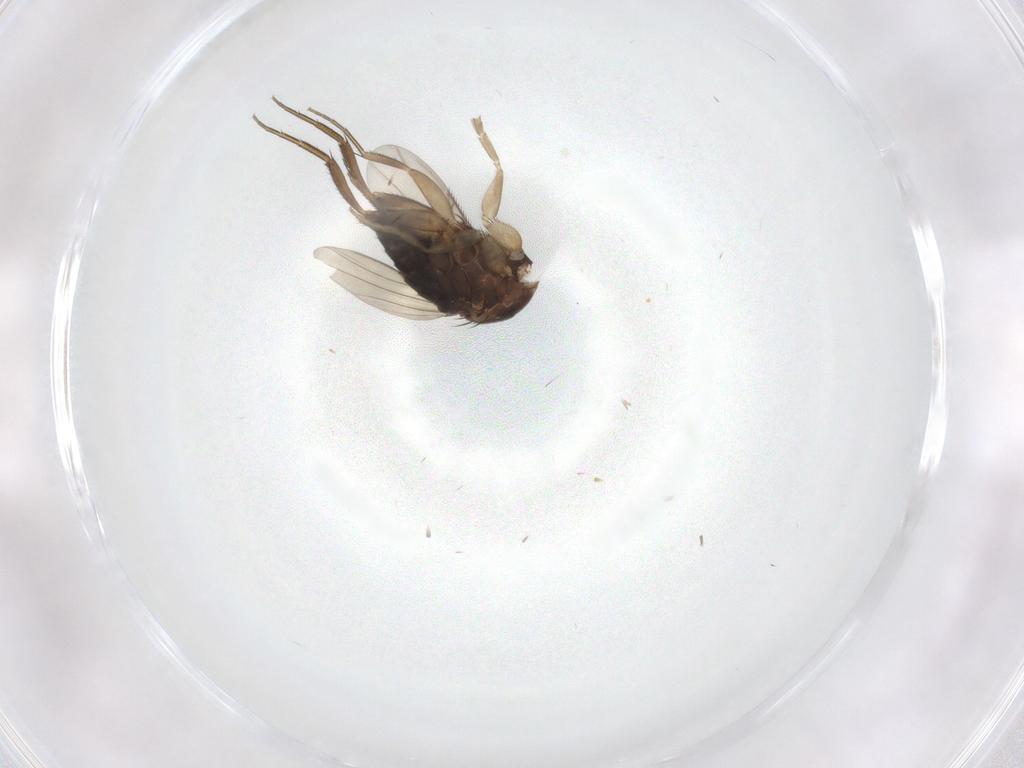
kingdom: Animalia
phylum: Arthropoda
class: Insecta
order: Diptera
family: Phoridae
